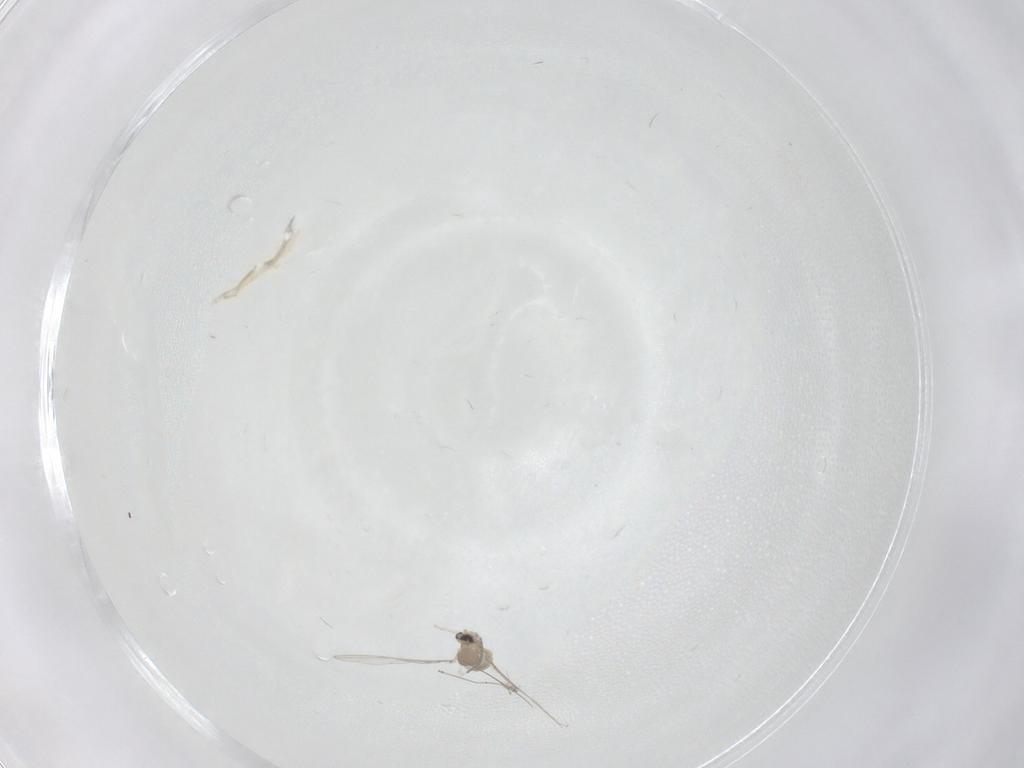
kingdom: Animalia
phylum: Arthropoda
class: Insecta
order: Diptera
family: Cecidomyiidae
